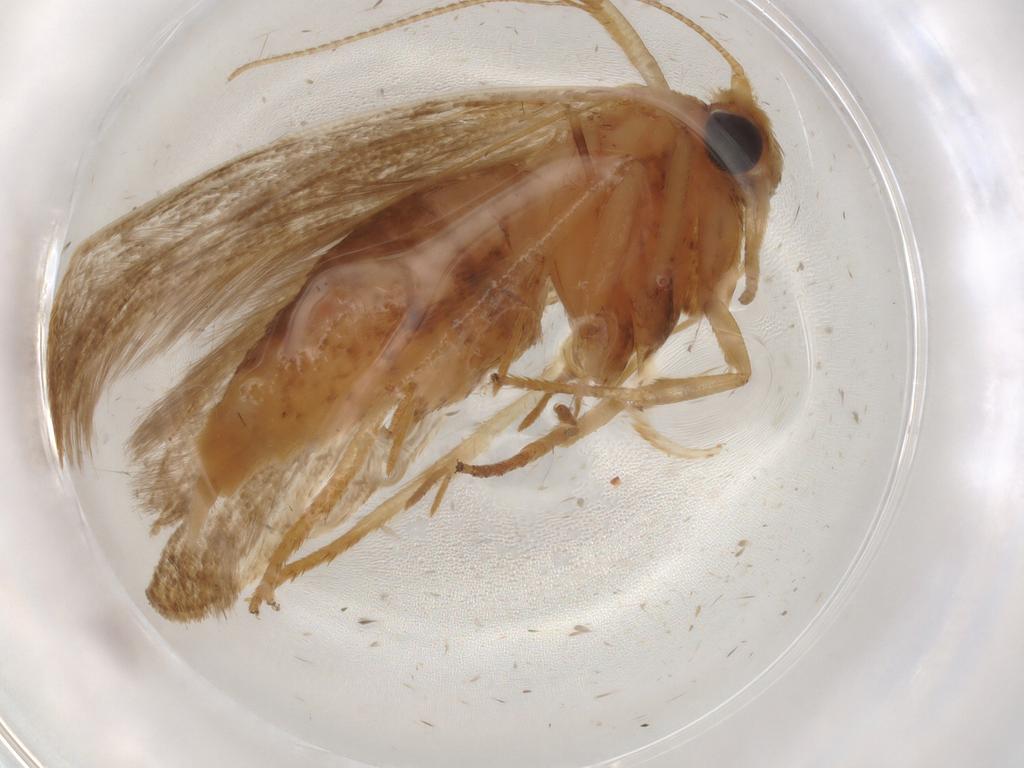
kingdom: Animalia
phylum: Arthropoda
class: Insecta
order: Lepidoptera
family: Blastobasidae
